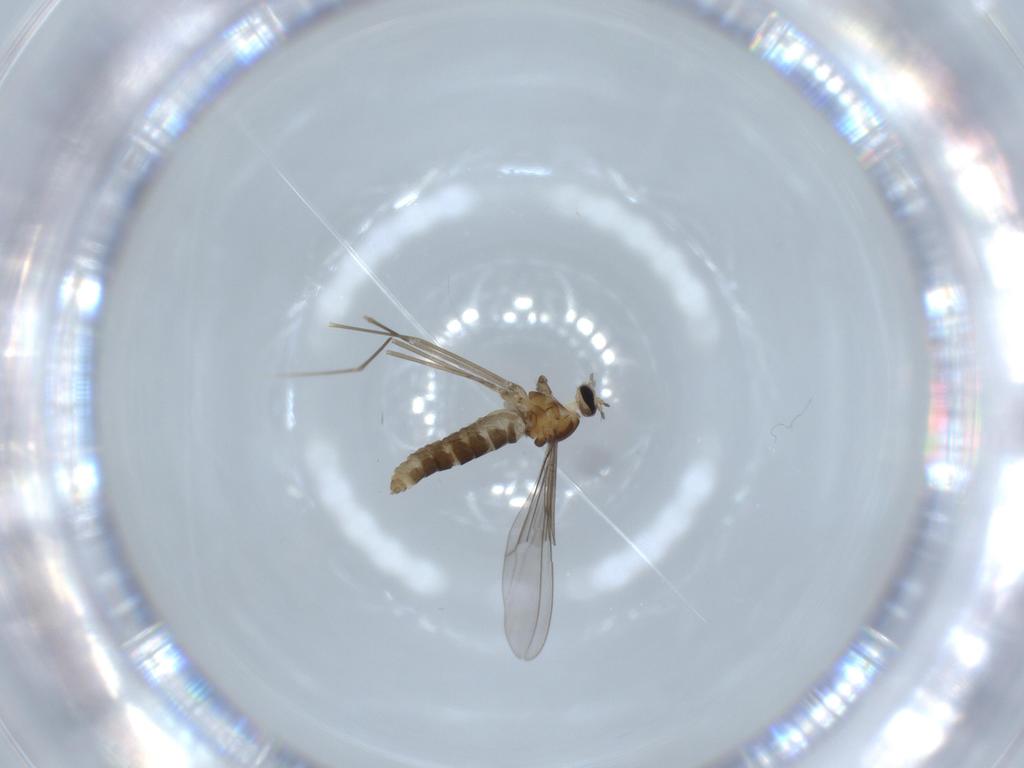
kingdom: Animalia
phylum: Arthropoda
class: Insecta
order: Diptera
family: Cecidomyiidae
